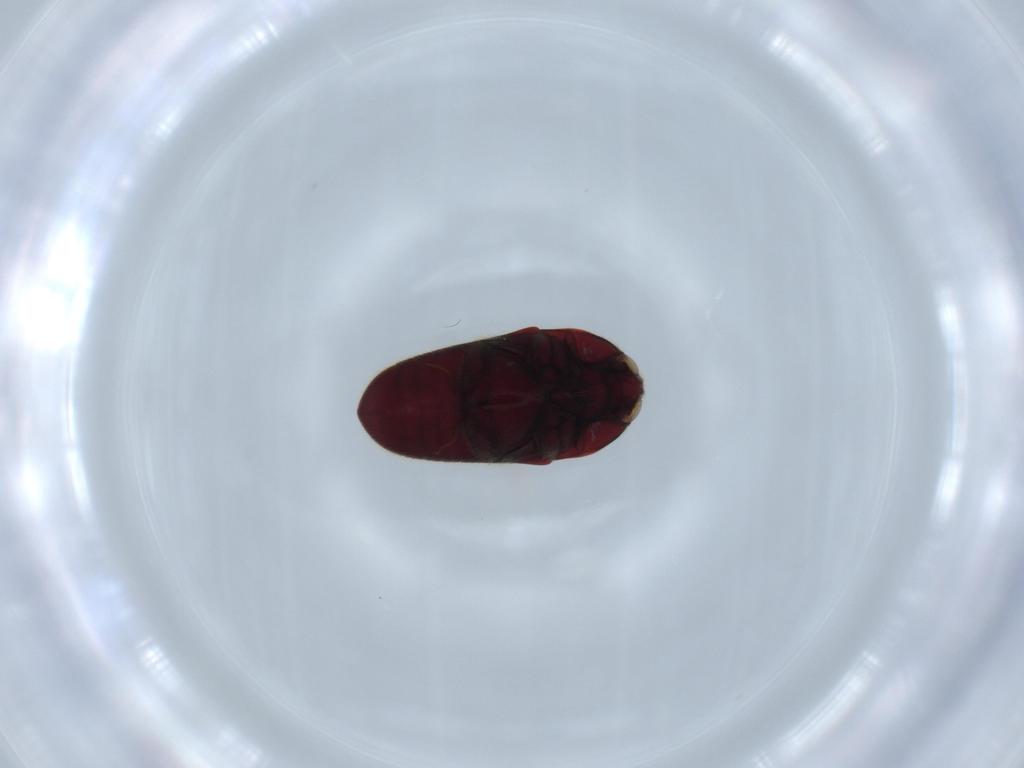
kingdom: Animalia
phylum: Arthropoda
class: Insecta
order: Coleoptera
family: Throscidae
